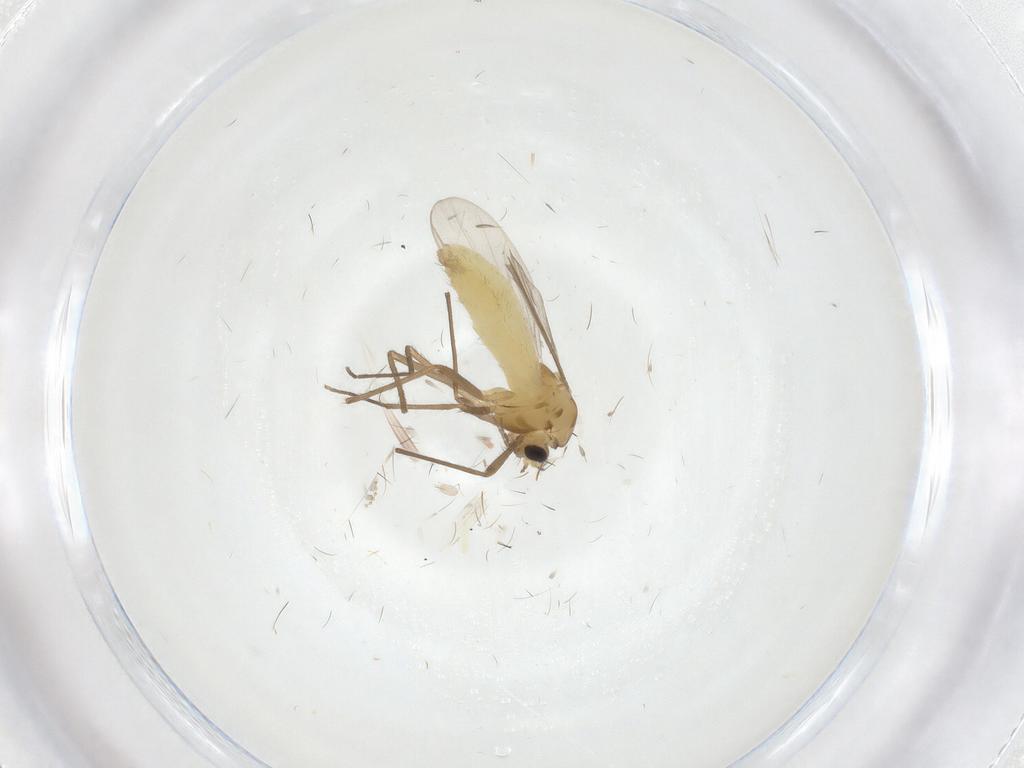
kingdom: Animalia
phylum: Arthropoda
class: Insecta
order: Diptera
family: Chironomidae
